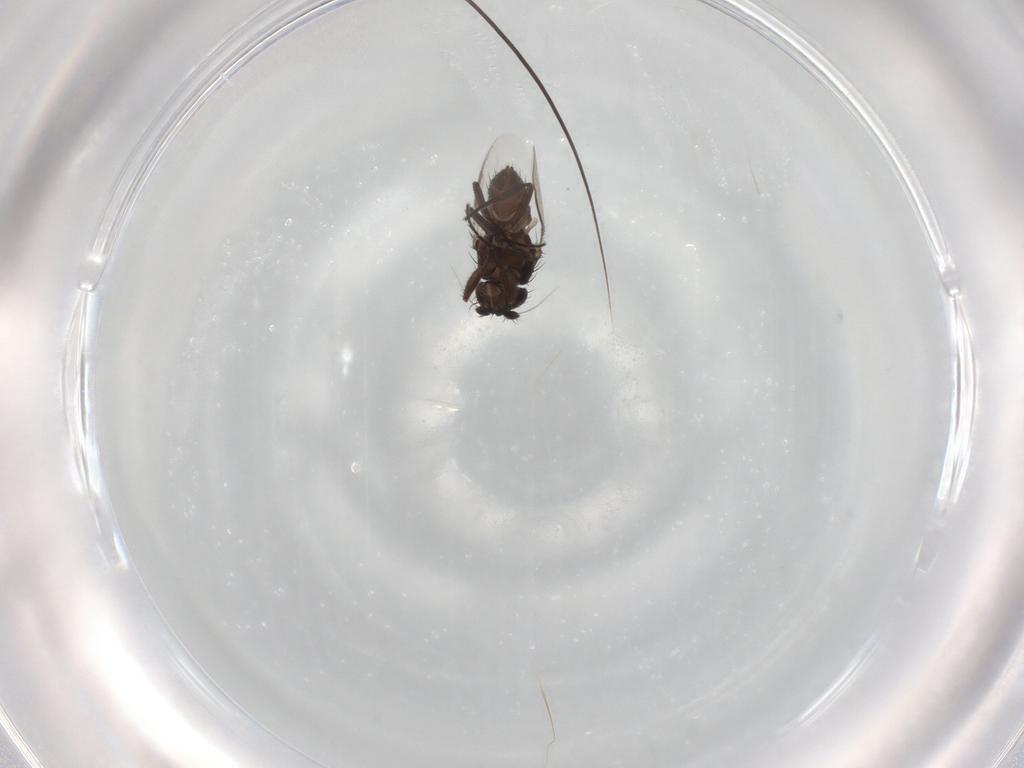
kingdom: Animalia
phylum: Arthropoda
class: Insecta
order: Diptera
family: Sphaeroceridae
